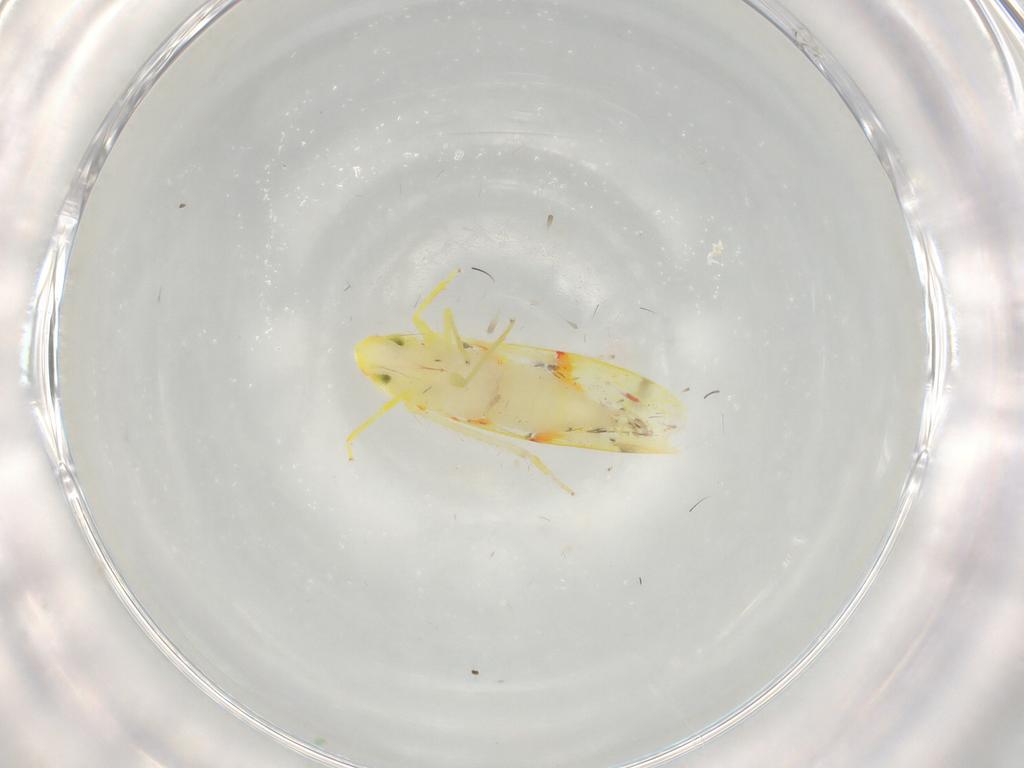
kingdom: Animalia
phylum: Arthropoda
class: Insecta
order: Hemiptera
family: Cicadellidae
